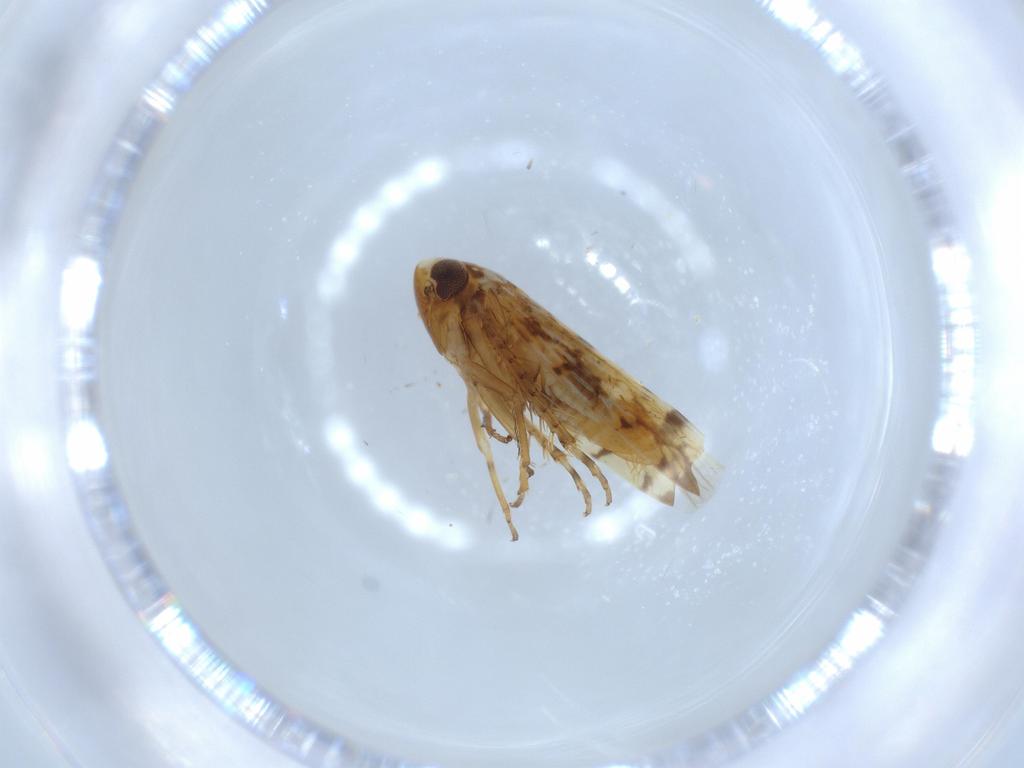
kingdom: Animalia
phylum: Arthropoda
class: Insecta
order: Hemiptera
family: Cicadellidae
